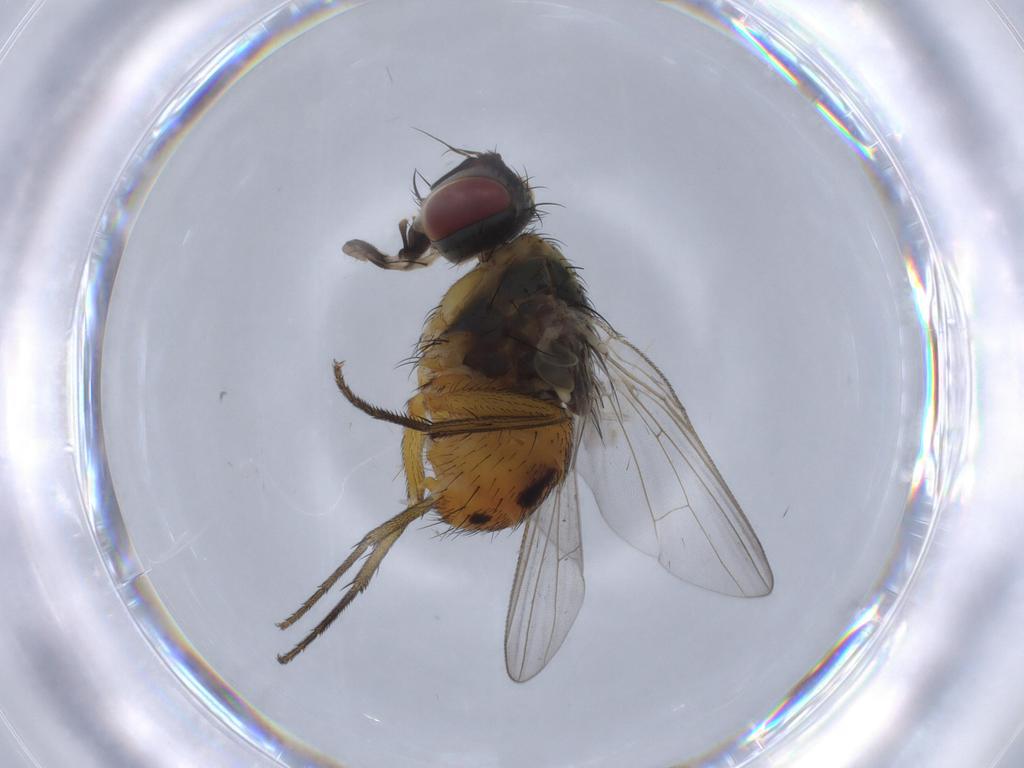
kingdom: Animalia
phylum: Arthropoda
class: Insecta
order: Diptera
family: Muscidae
